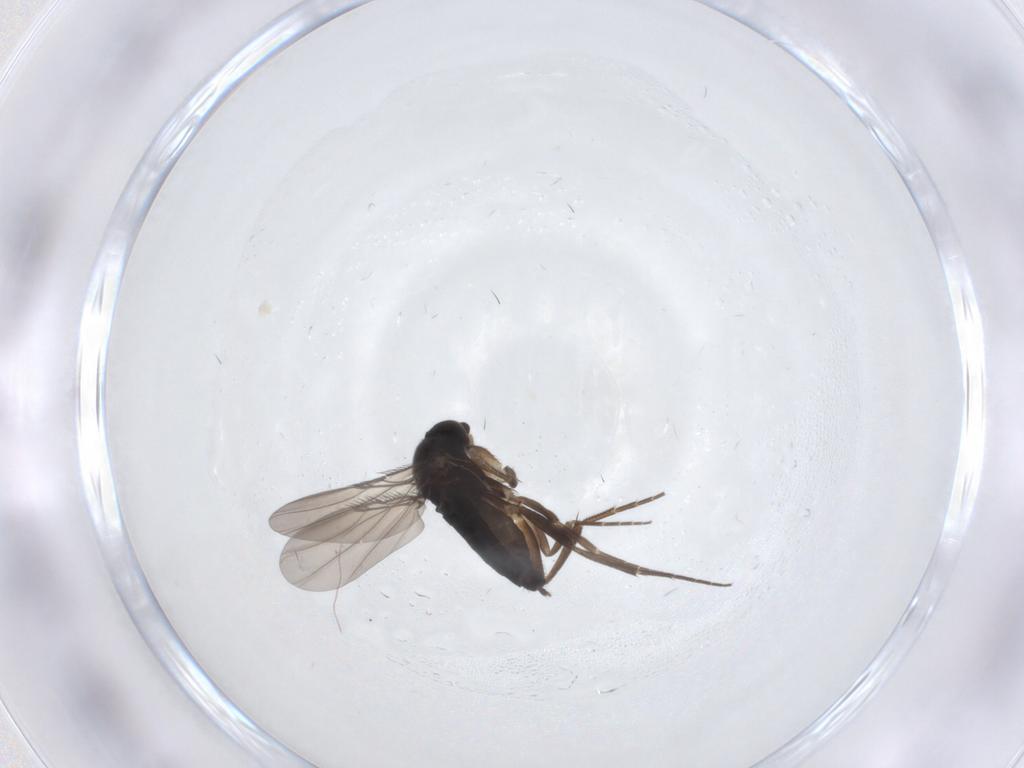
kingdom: Animalia
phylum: Arthropoda
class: Insecta
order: Diptera
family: Phoridae
